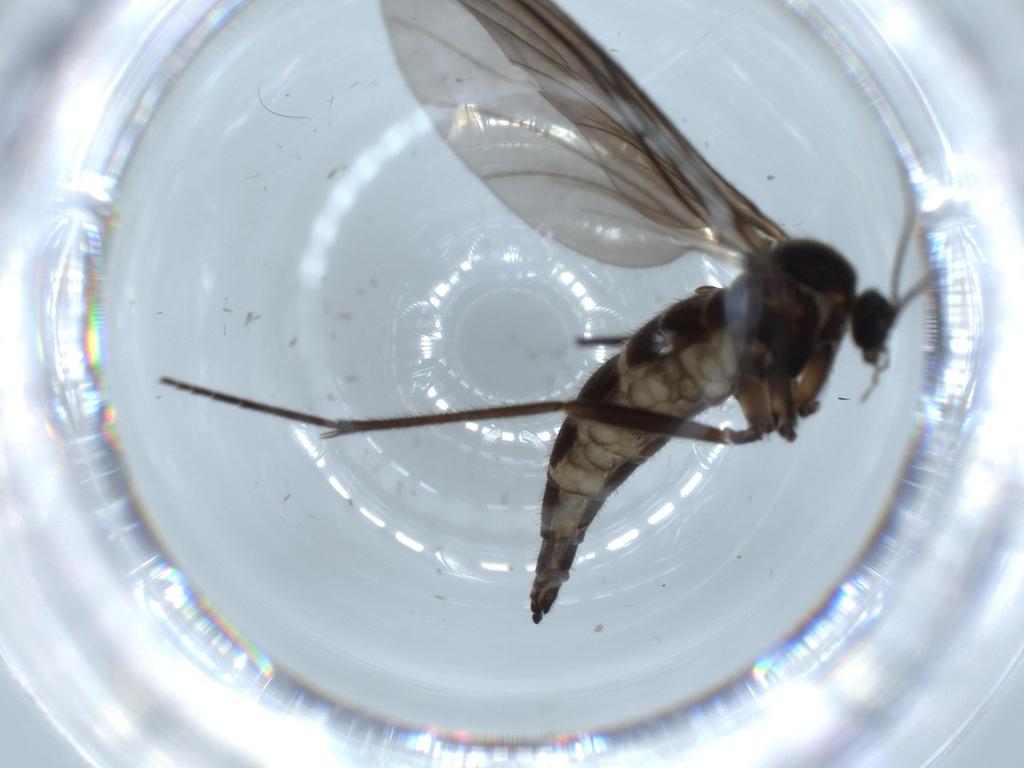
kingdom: Animalia
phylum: Arthropoda
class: Insecta
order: Diptera
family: Sciaridae
